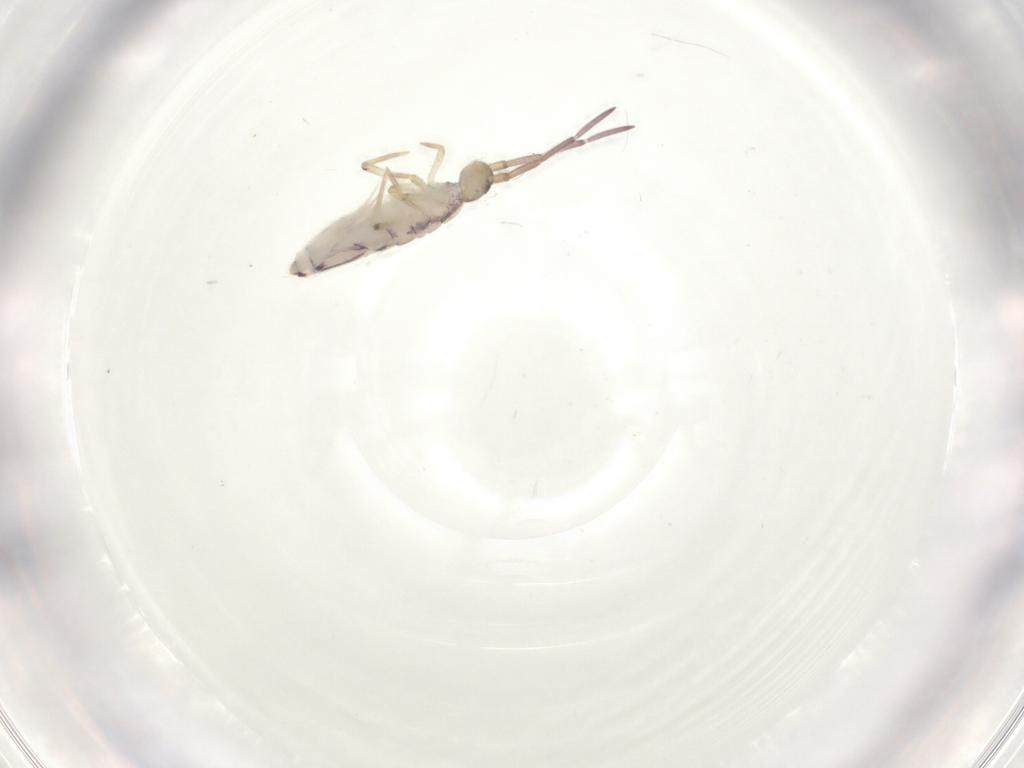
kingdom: Animalia
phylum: Arthropoda
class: Collembola
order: Entomobryomorpha
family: Entomobryidae
